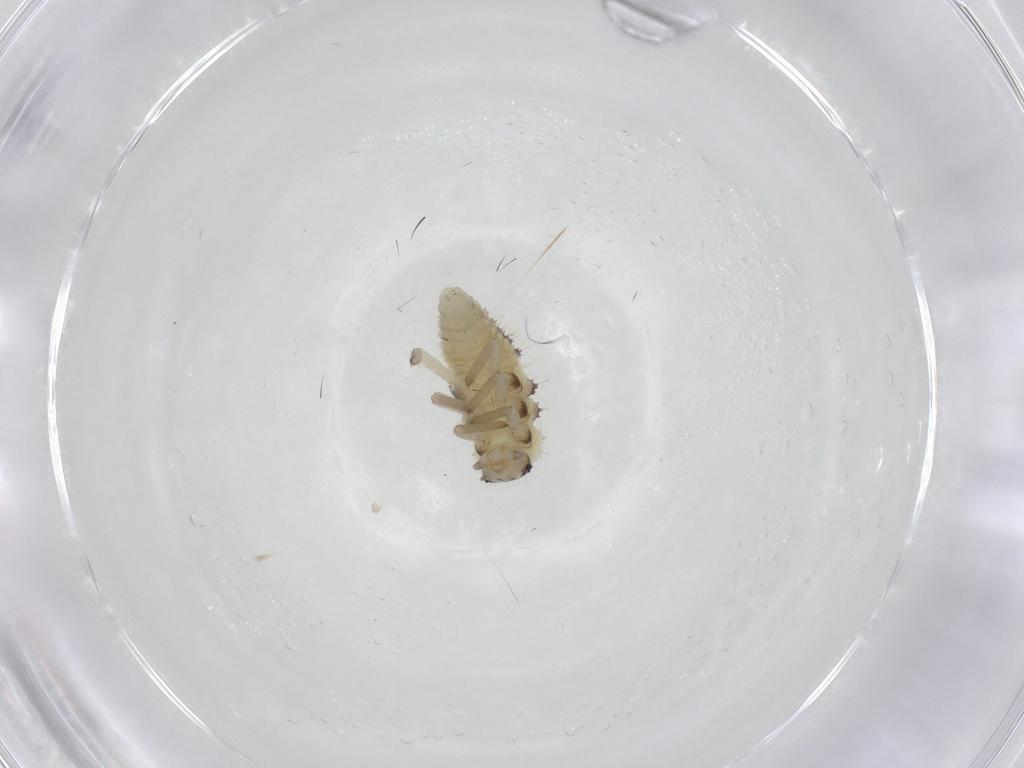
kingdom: Animalia
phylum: Arthropoda
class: Insecta
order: Coleoptera
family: Coccinellidae
